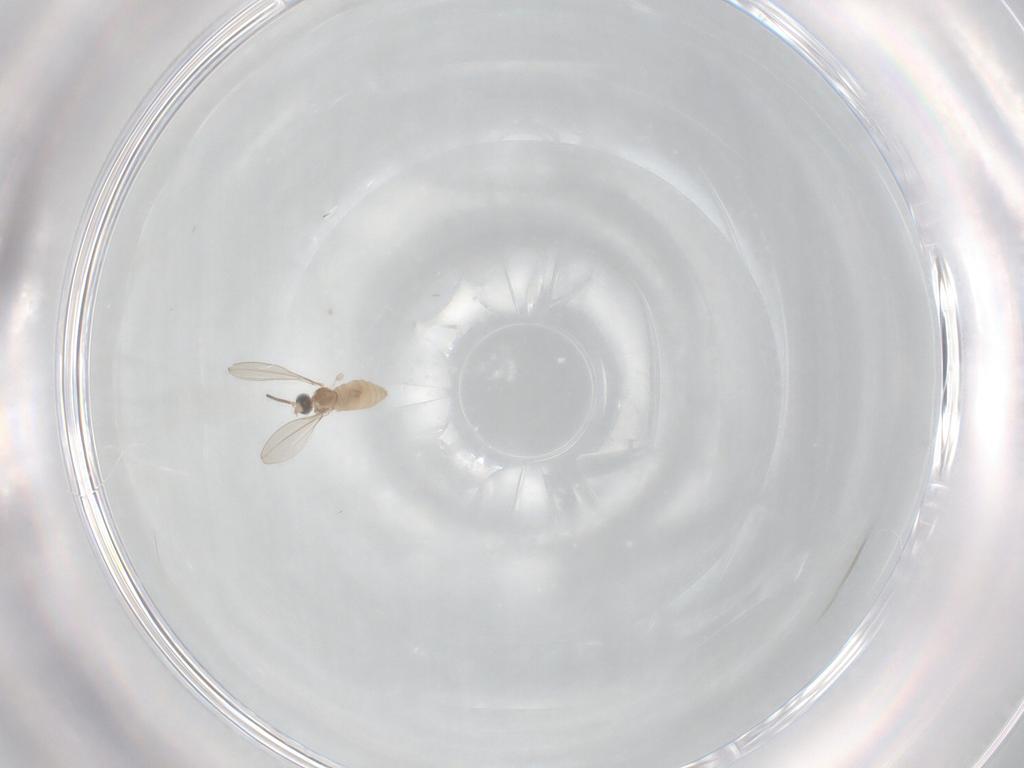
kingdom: Animalia
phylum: Arthropoda
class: Insecta
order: Diptera
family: Cecidomyiidae
